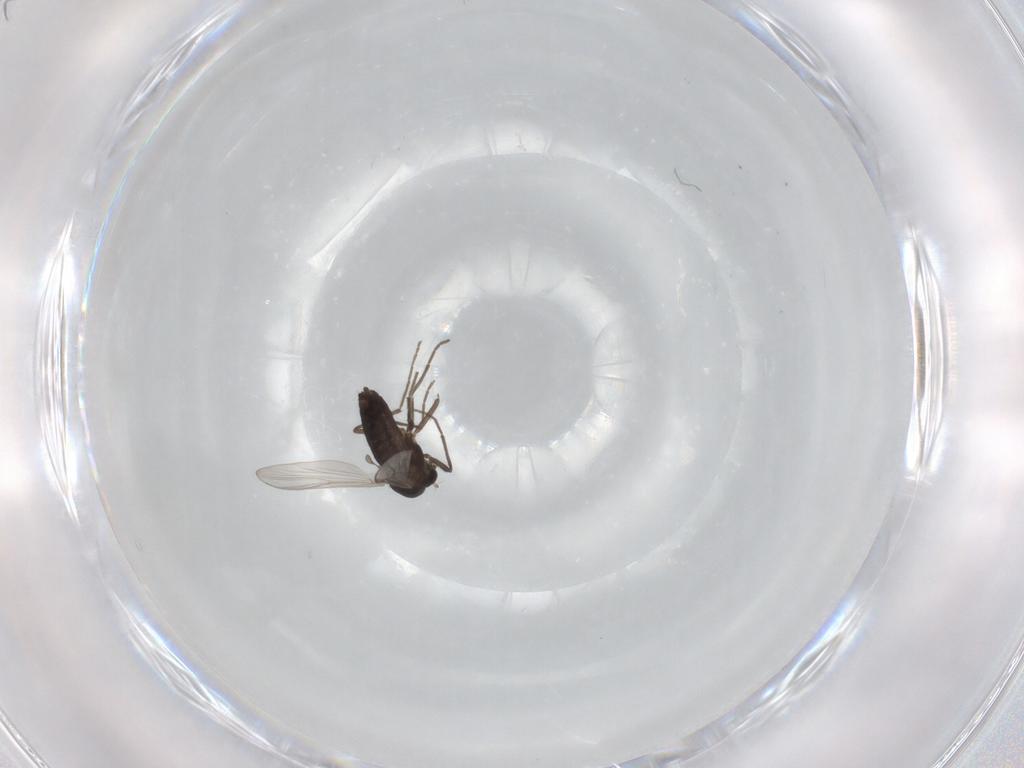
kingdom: Animalia
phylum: Arthropoda
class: Insecta
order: Diptera
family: Chironomidae
